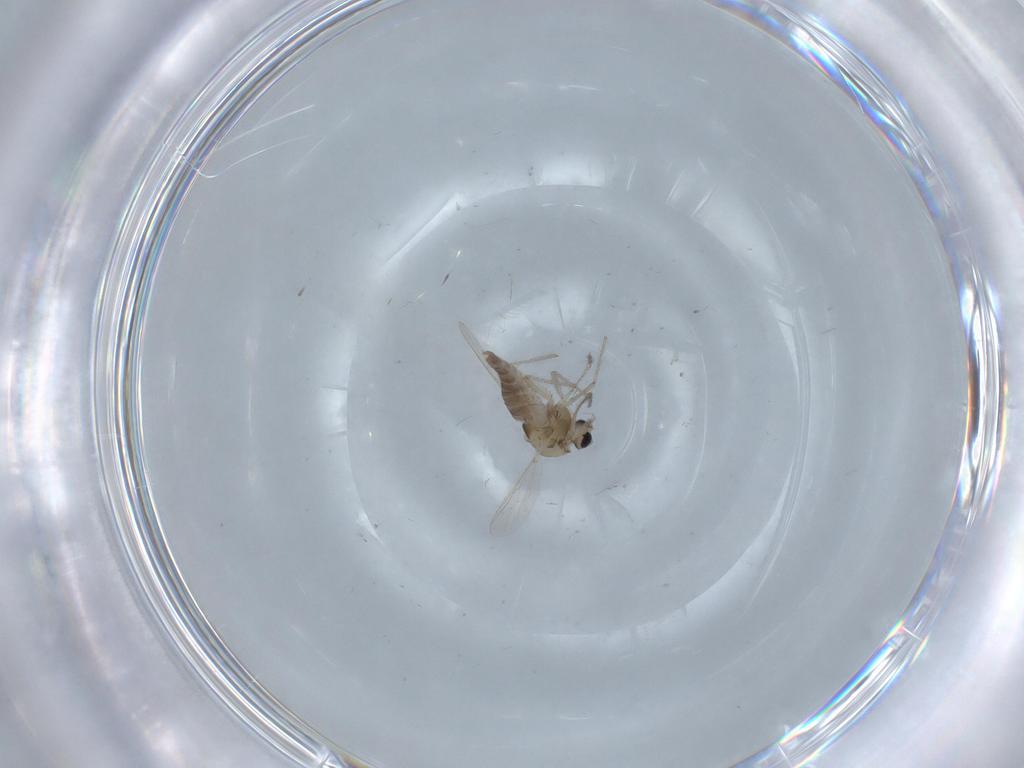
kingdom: Animalia
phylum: Arthropoda
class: Insecta
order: Diptera
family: Chironomidae
